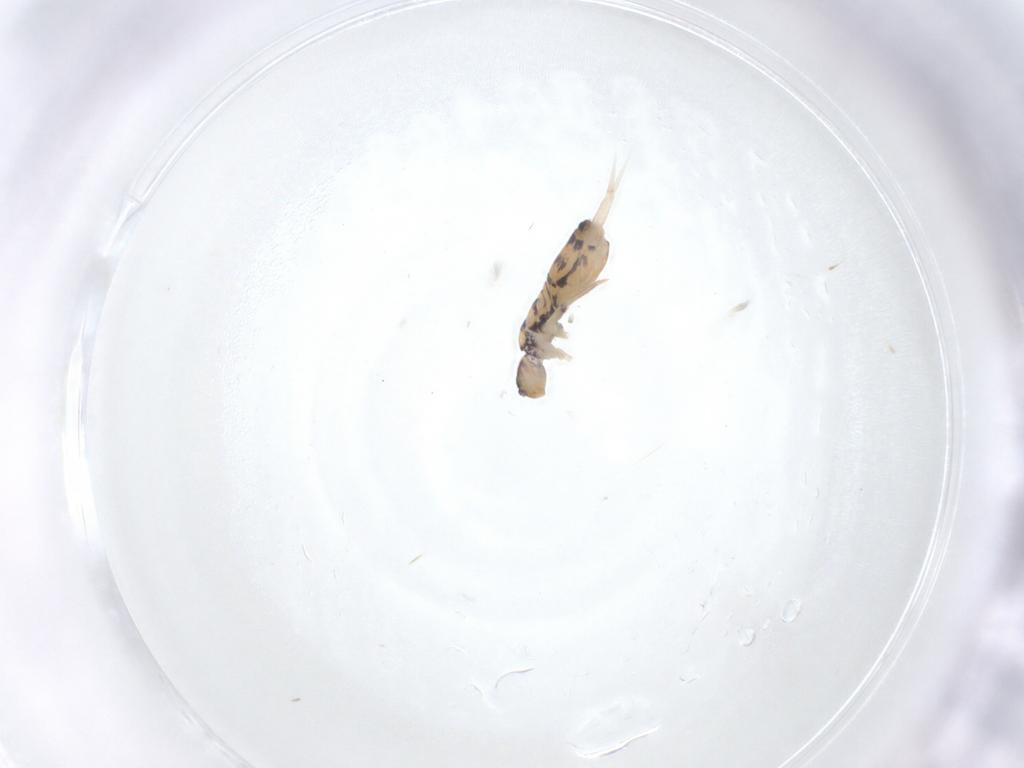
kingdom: Animalia
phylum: Arthropoda
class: Collembola
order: Entomobryomorpha
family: Entomobryidae
